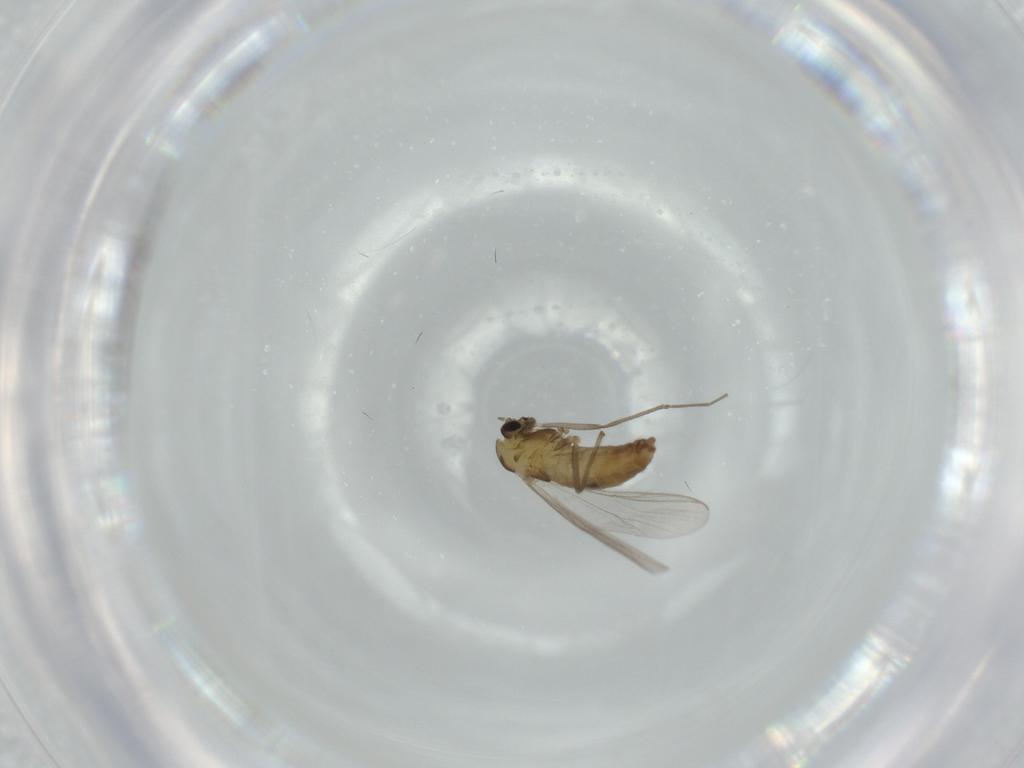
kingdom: Animalia
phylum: Arthropoda
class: Insecta
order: Diptera
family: Chironomidae
